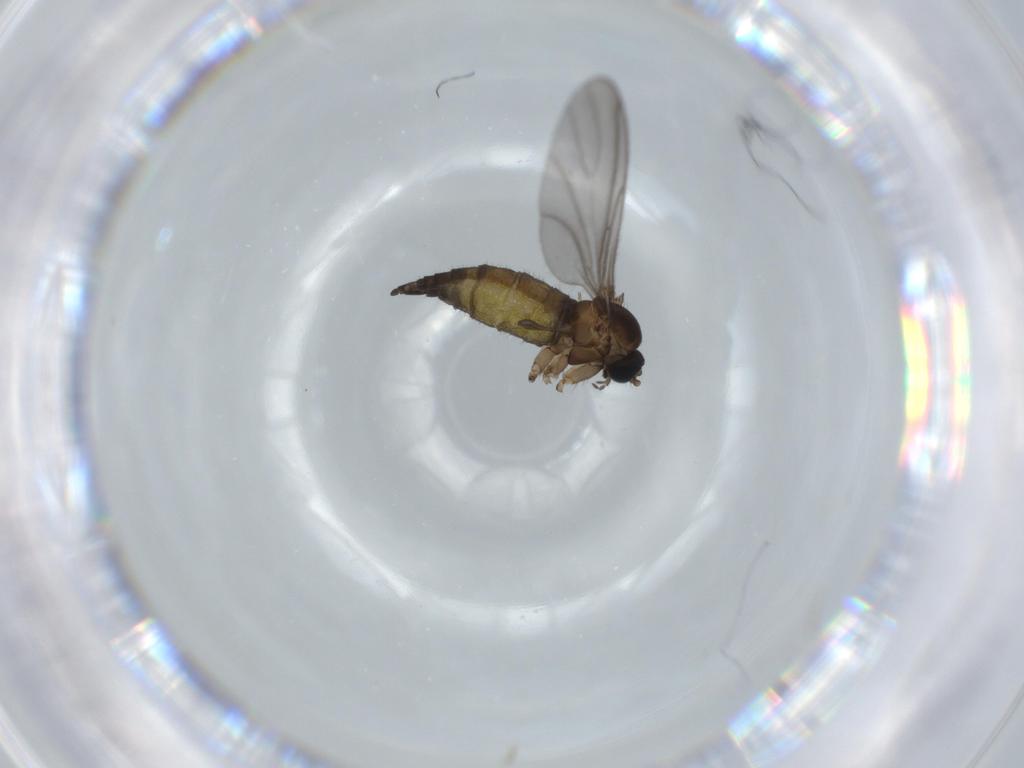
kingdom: Animalia
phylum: Arthropoda
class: Insecta
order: Diptera
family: Sciaridae
